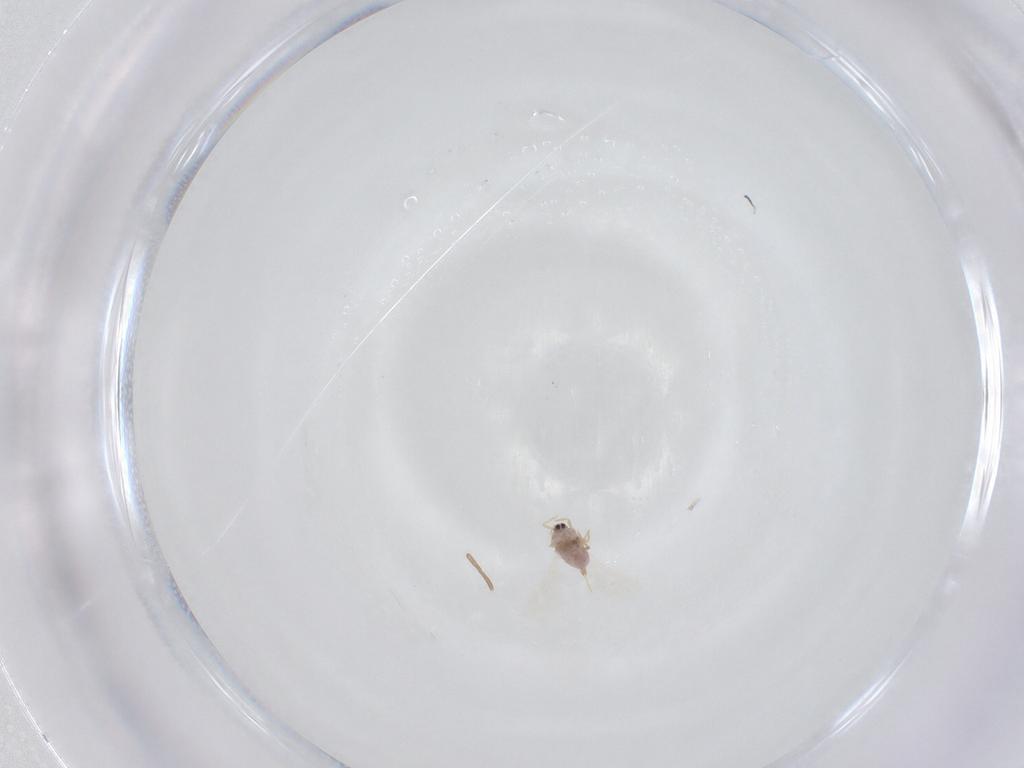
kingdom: Animalia
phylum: Arthropoda
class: Insecta
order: Hemiptera
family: Diaspididae
